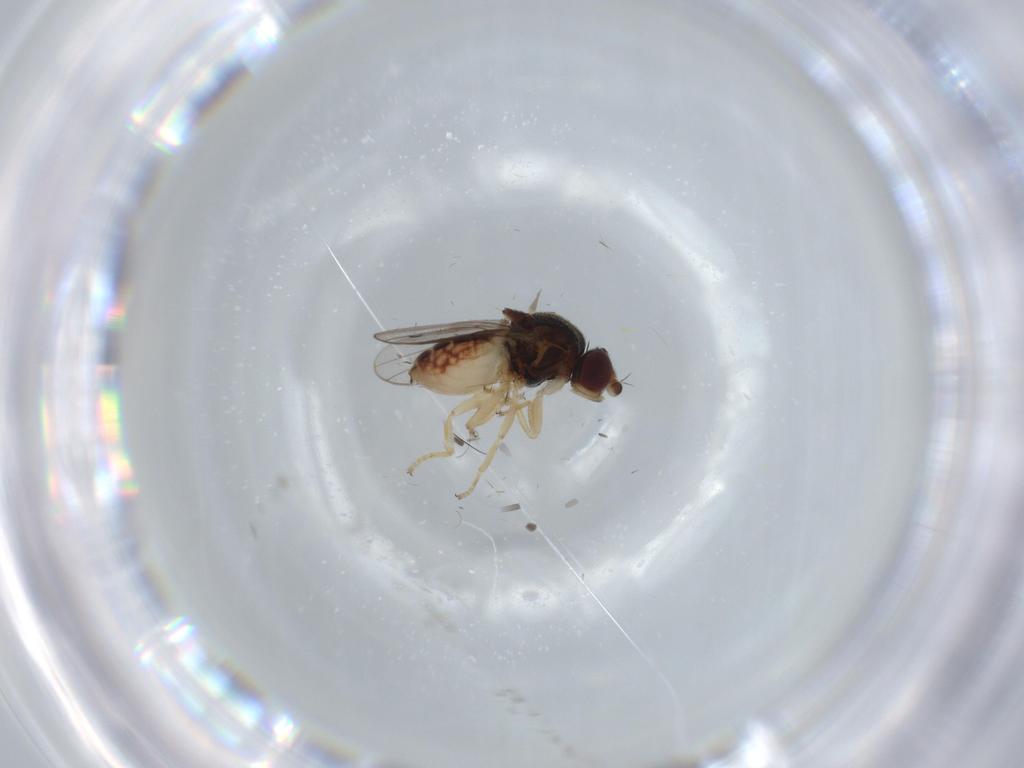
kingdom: Animalia
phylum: Arthropoda
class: Insecta
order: Diptera
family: Chloropidae
